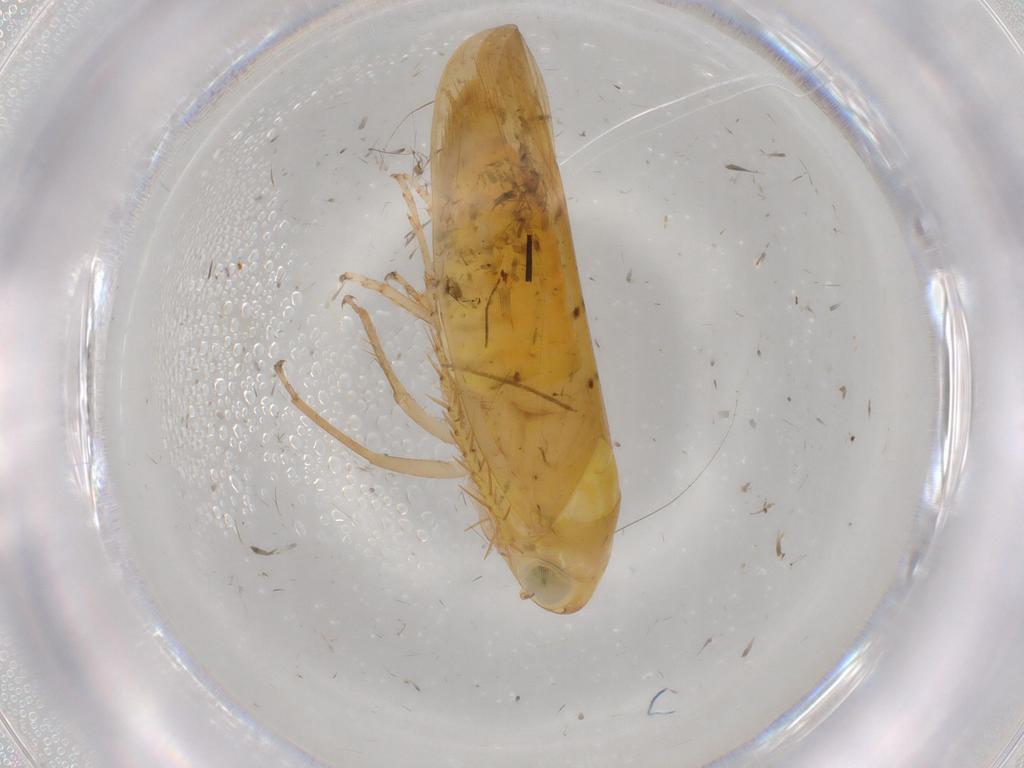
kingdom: Animalia
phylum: Arthropoda
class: Insecta
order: Hemiptera
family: Cicadellidae
